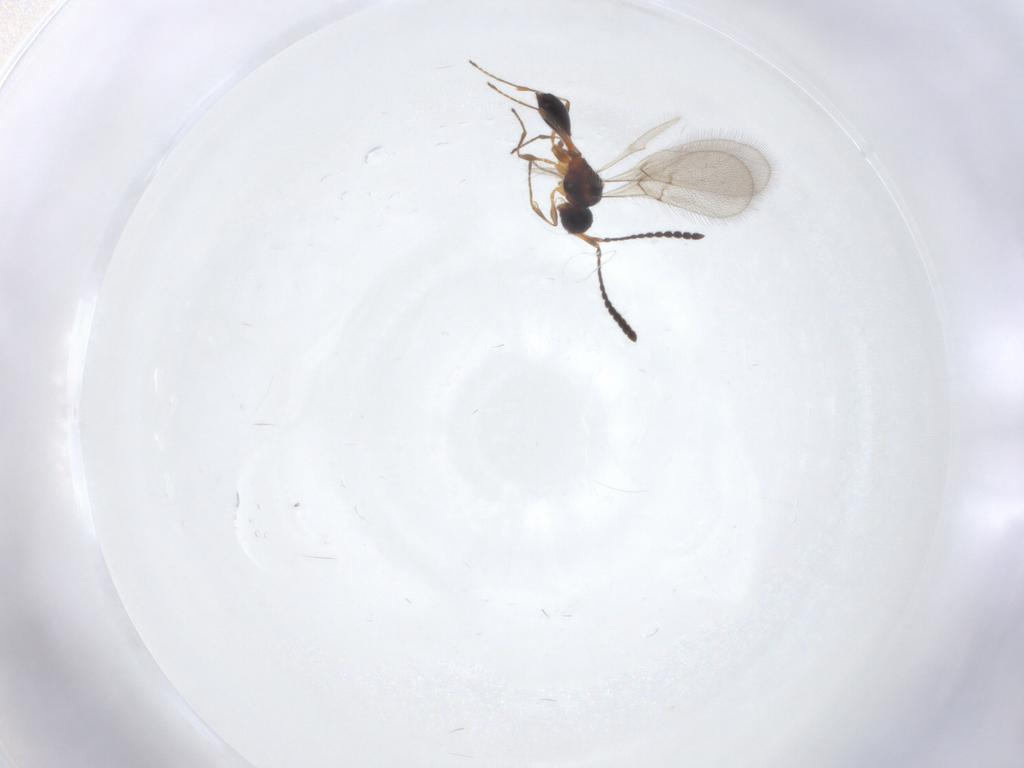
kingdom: Animalia
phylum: Arthropoda
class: Insecta
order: Hymenoptera
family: Diapriidae
